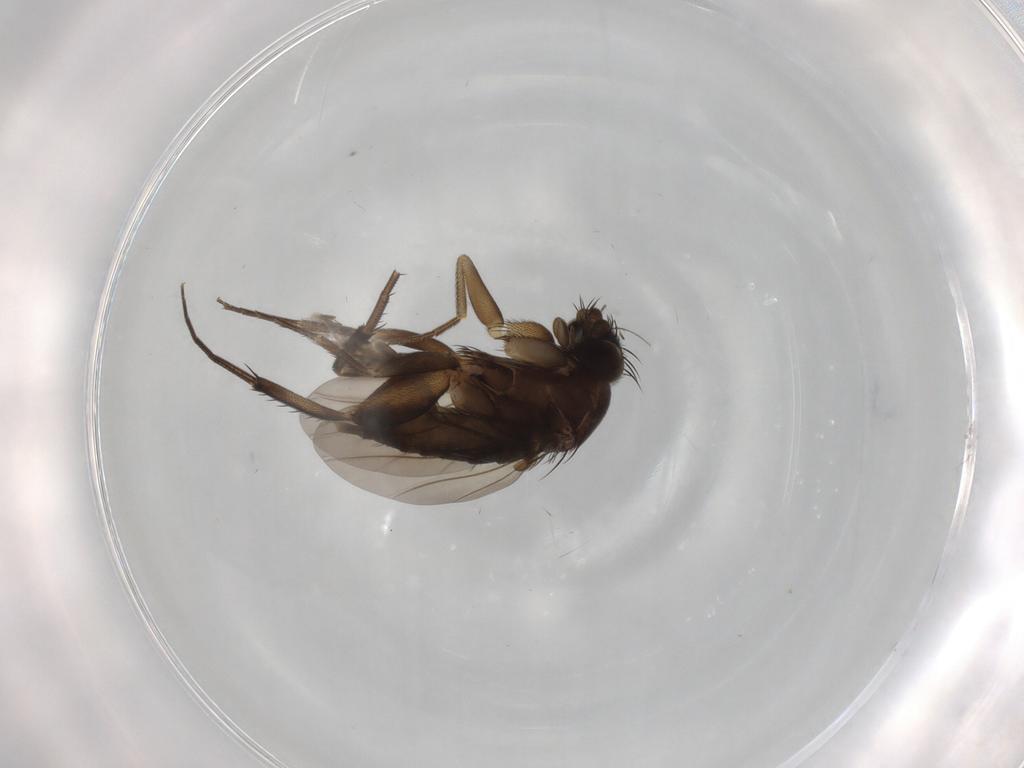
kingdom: Animalia
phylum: Arthropoda
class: Insecta
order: Diptera
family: Phoridae
